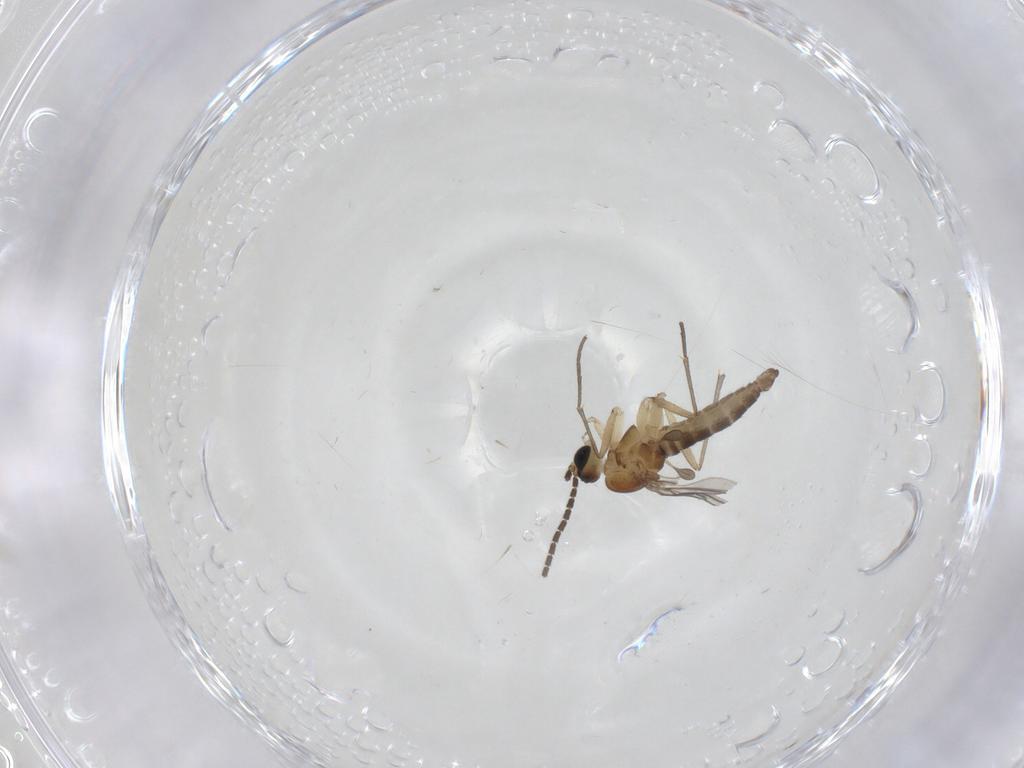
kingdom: Animalia
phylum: Arthropoda
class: Insecta
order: Diptera
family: Sciaridae
